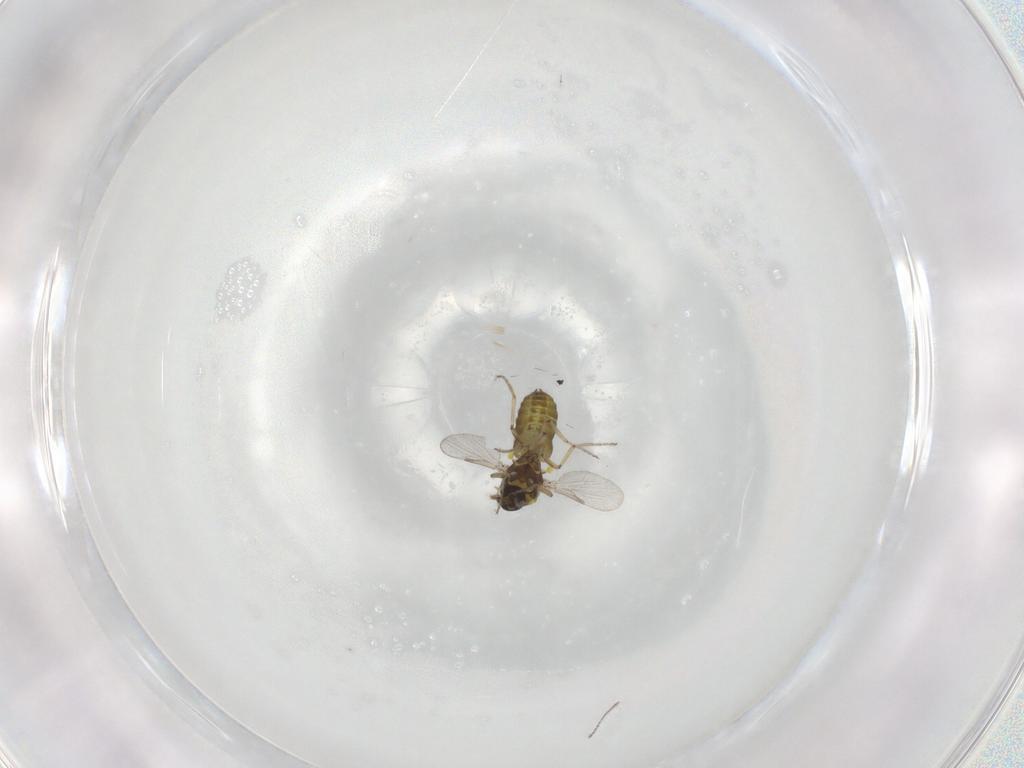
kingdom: Animalia
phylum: Arthropoda
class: Insecta
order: Diptera
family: Ceratopogonidae
